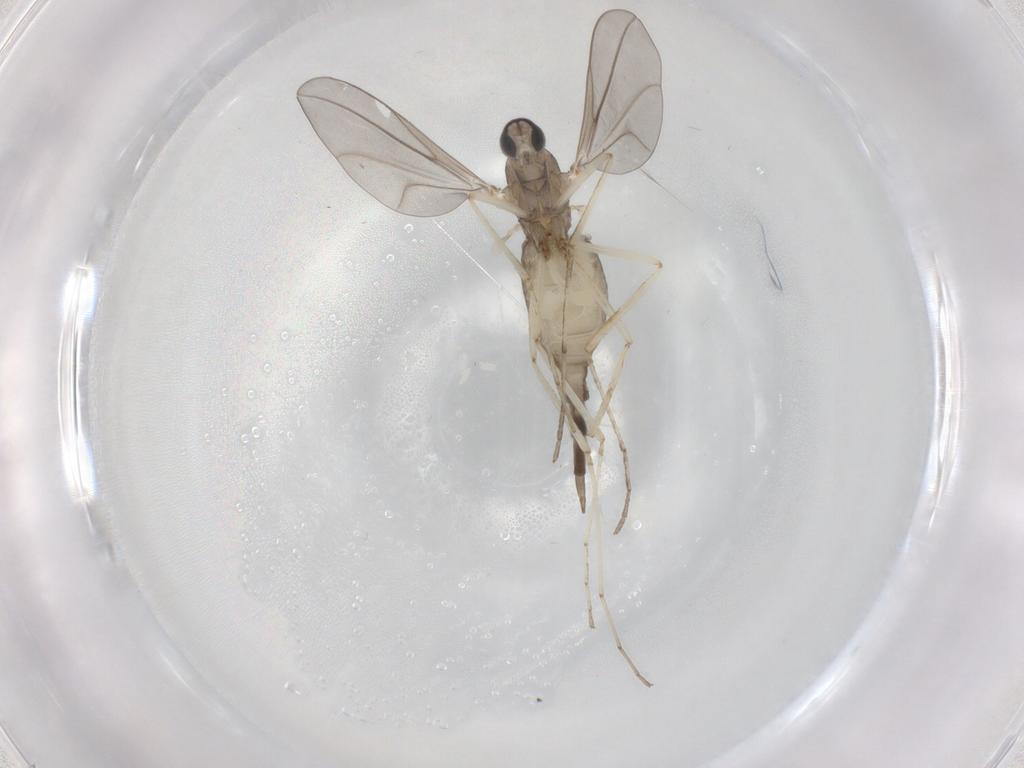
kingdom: Animalia
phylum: Arthropoda
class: Insecta
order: Diptera
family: Cecidomyiidae
